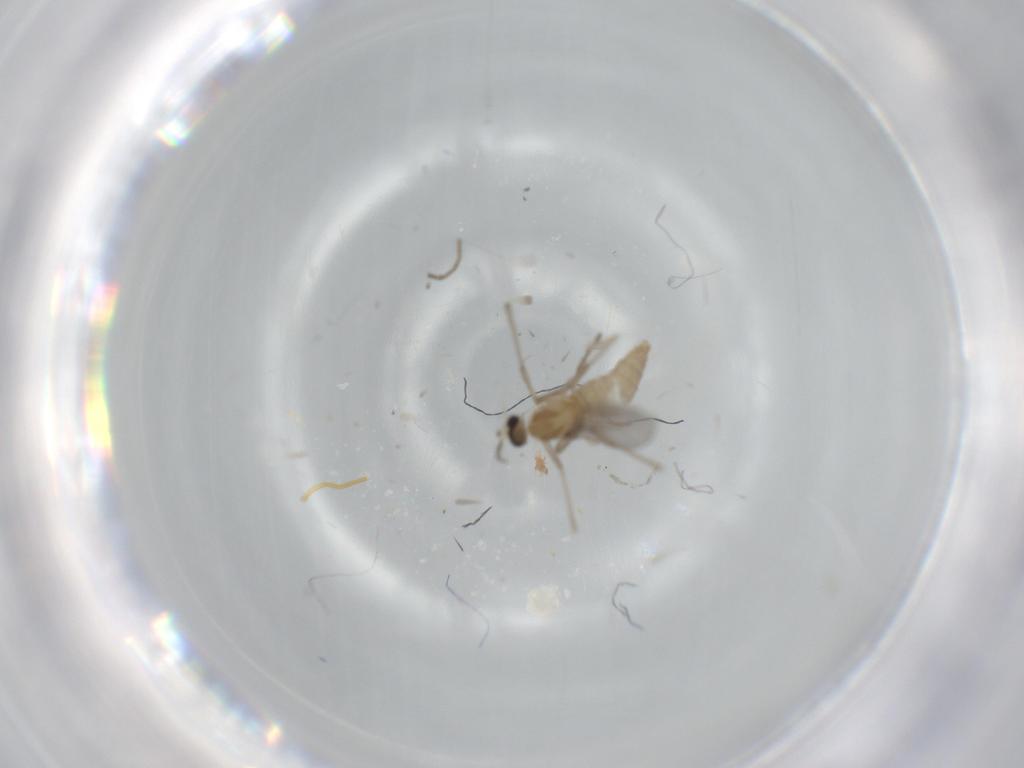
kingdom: Animalia
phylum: Arthropoda
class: Insecta
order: Diptera
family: Cecidomyiidae
